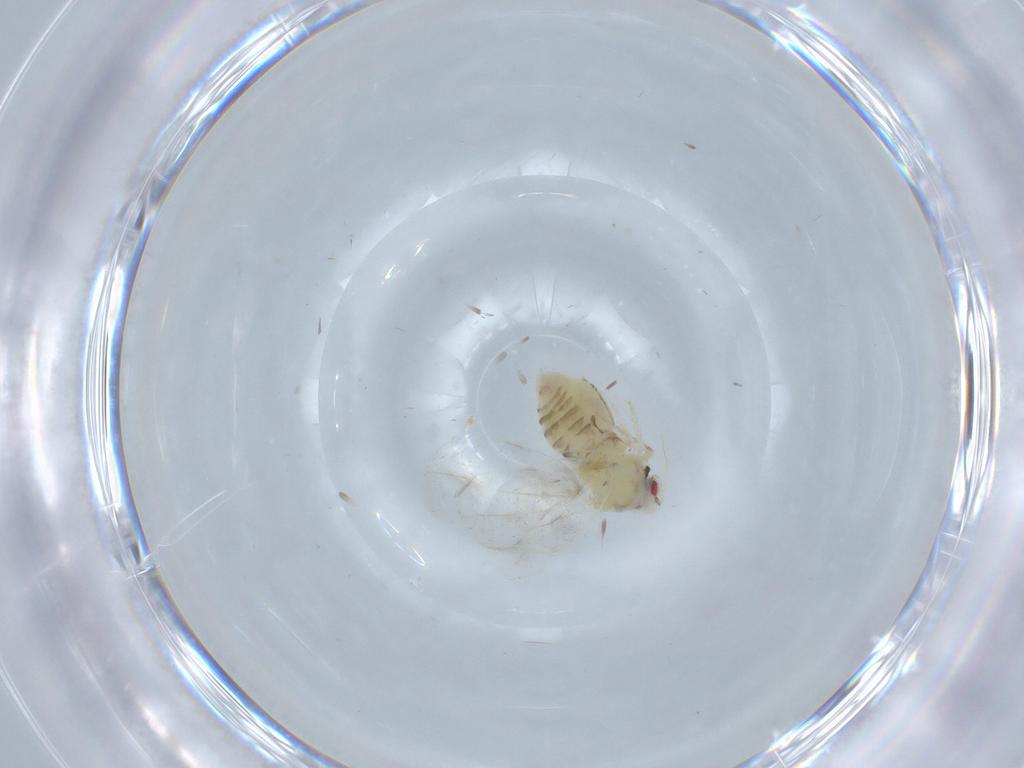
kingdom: Animalia
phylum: Arthropoda
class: Insecta
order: Hemiptera
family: Aleyrodidae
